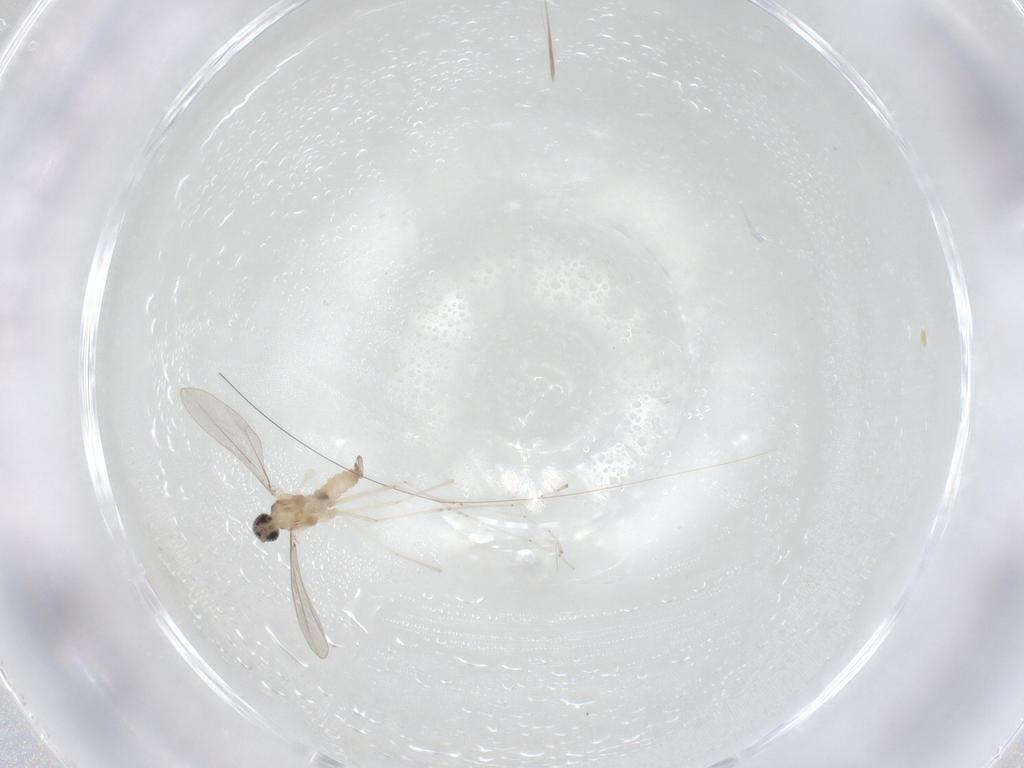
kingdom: Animalia
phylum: Arthropoda
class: Insecta
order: Diptera
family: Cecidomyiidae
